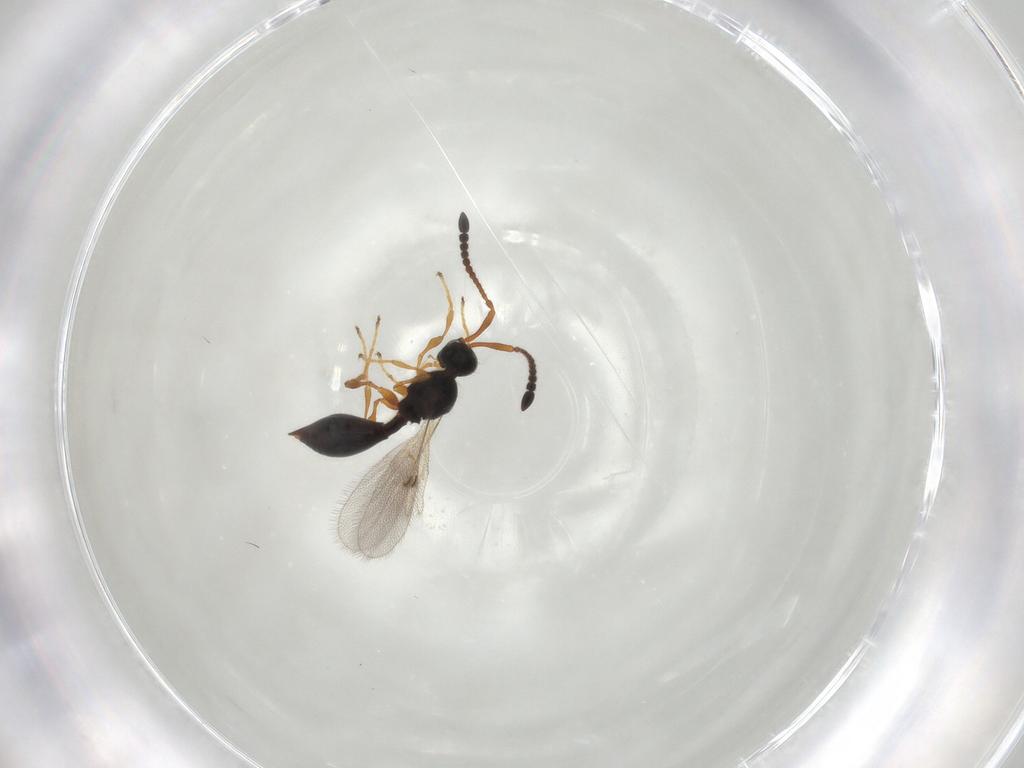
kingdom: Animalia
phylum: Arthropoda
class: Insecta
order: Hymenoptera
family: Diapriidae
